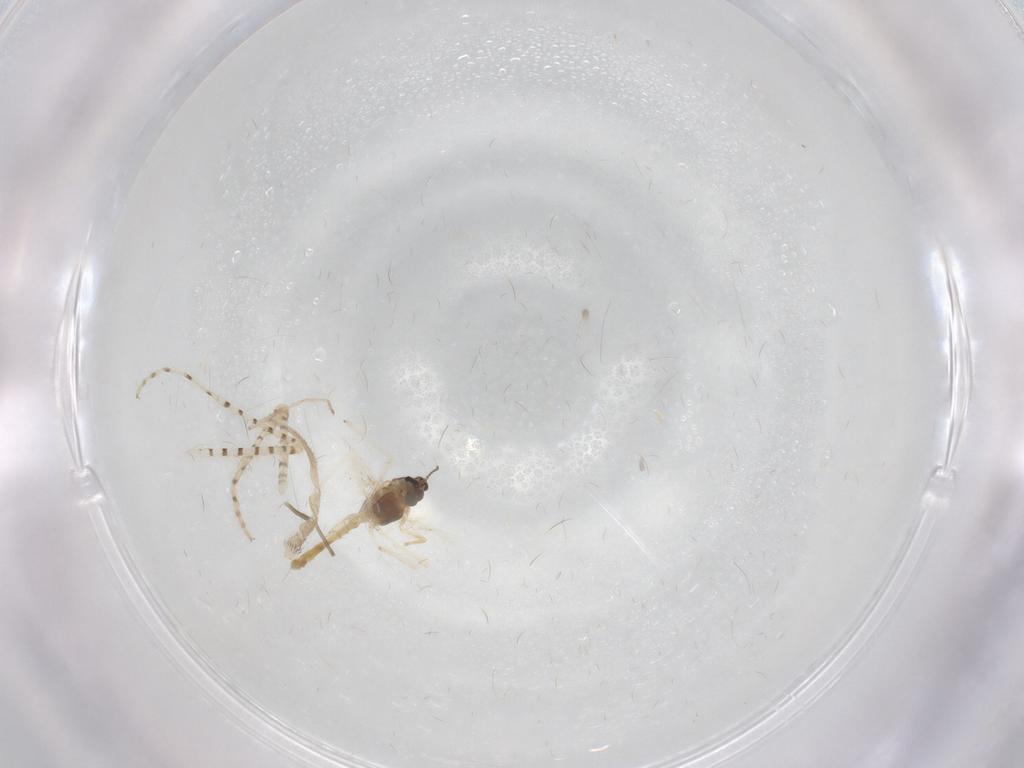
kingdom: Animalia
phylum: Arthropoda
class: Insecta
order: Diptera
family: Chaoboridae
